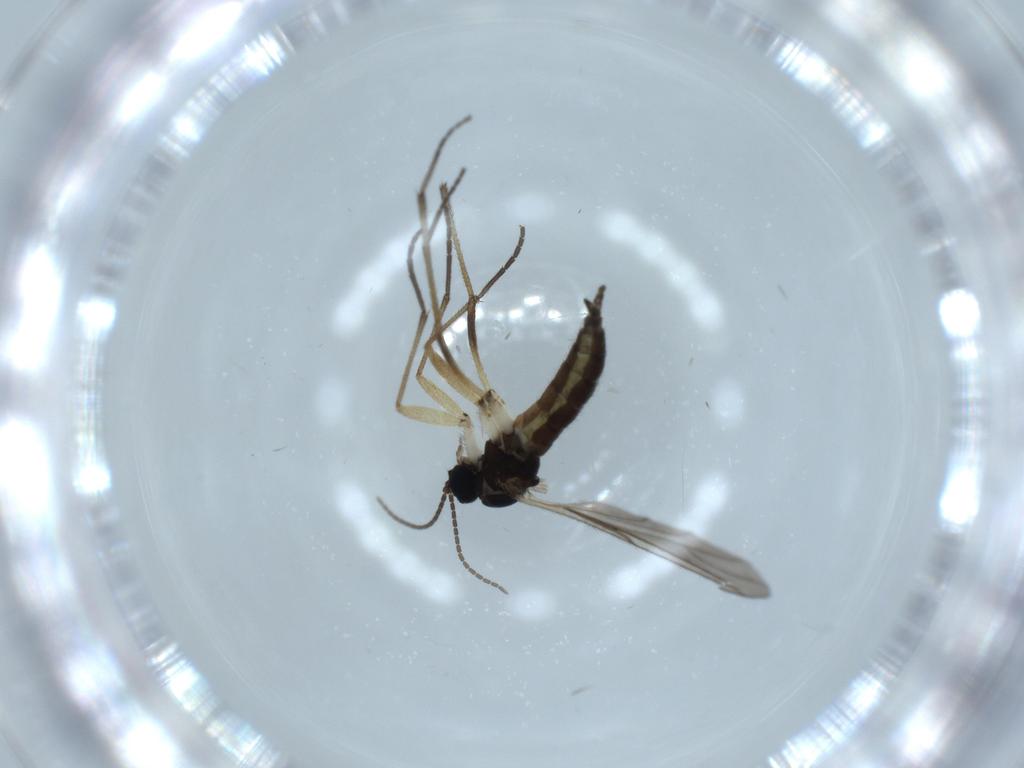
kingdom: Animalia
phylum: Arthropoda
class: Insecta
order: Diptera
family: Sciaridae
